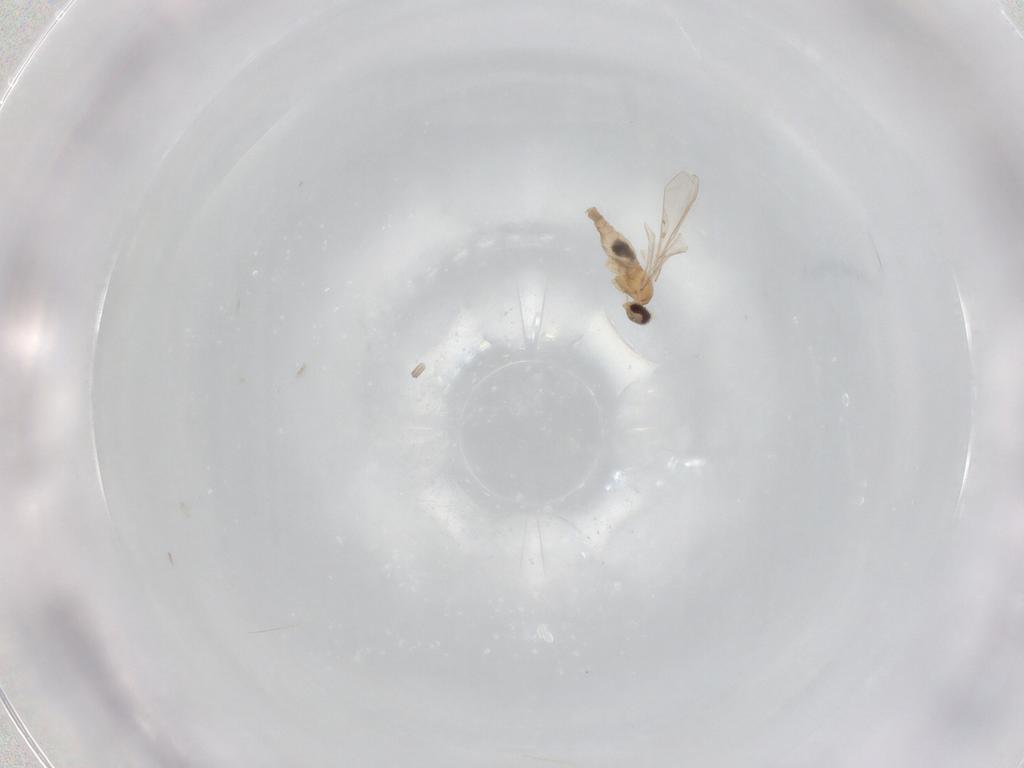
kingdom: Animalia
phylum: Arthropoda
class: Insecta
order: Diptera
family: Cecidomyiidae
